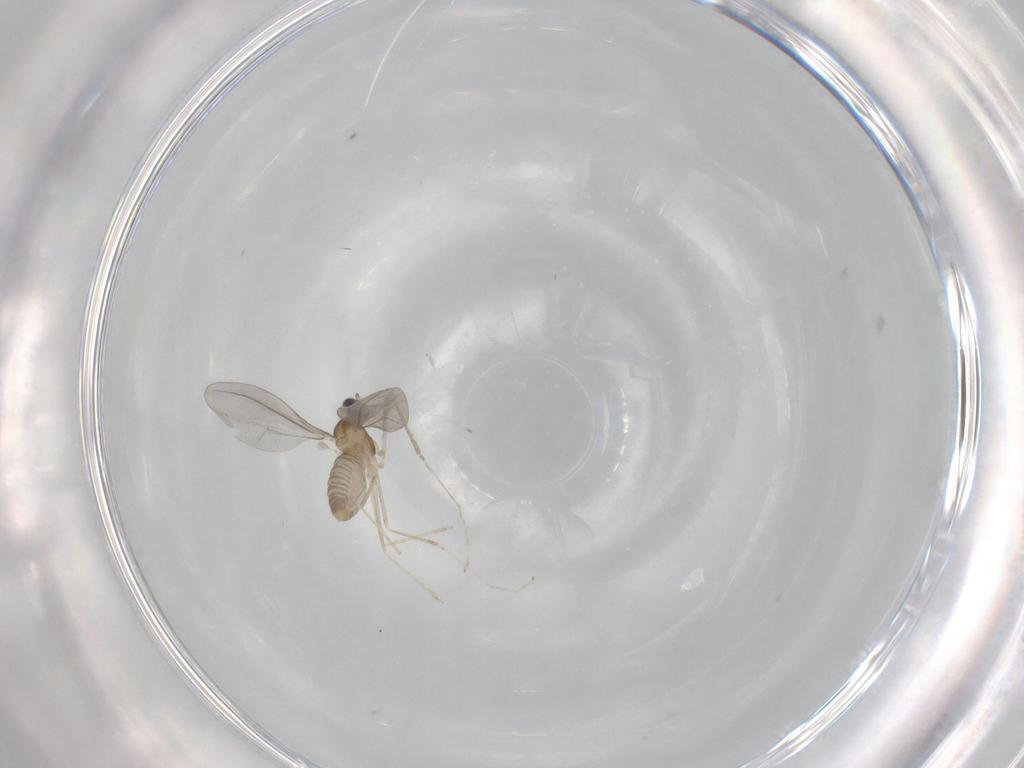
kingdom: Animalia
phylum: Arthropoda
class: Insecta
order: Diptera
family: Cecidomyiidae
